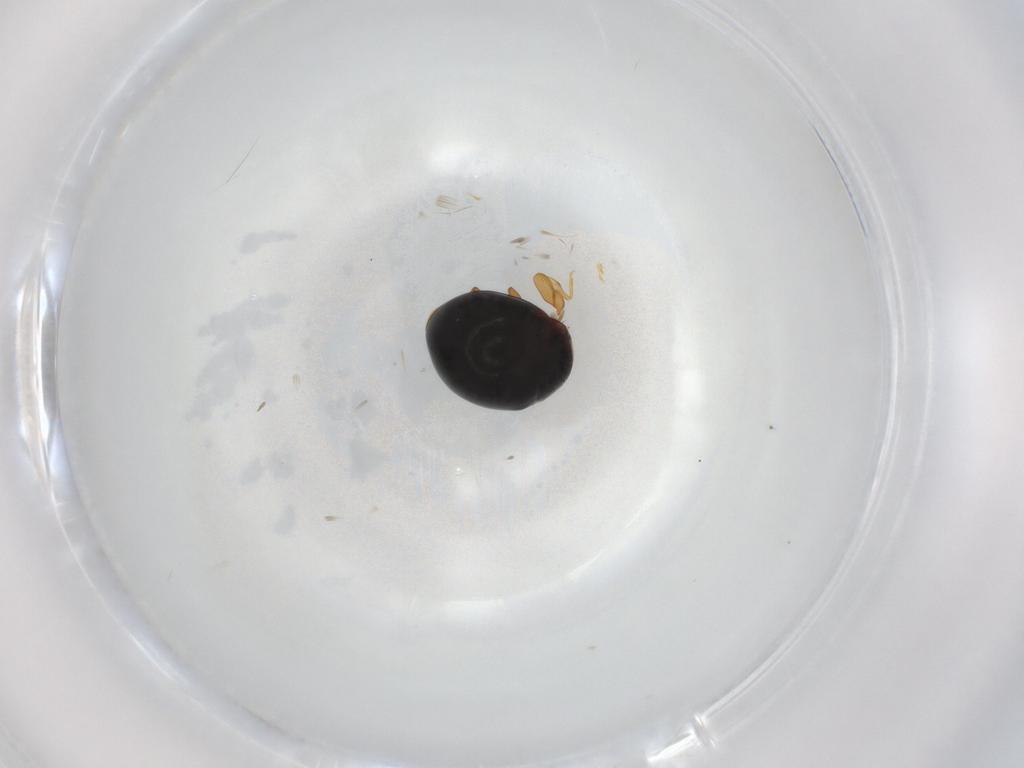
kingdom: Animalia
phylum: Arthropoda
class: Insecta
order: Coleoptera
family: Coccinellidae
